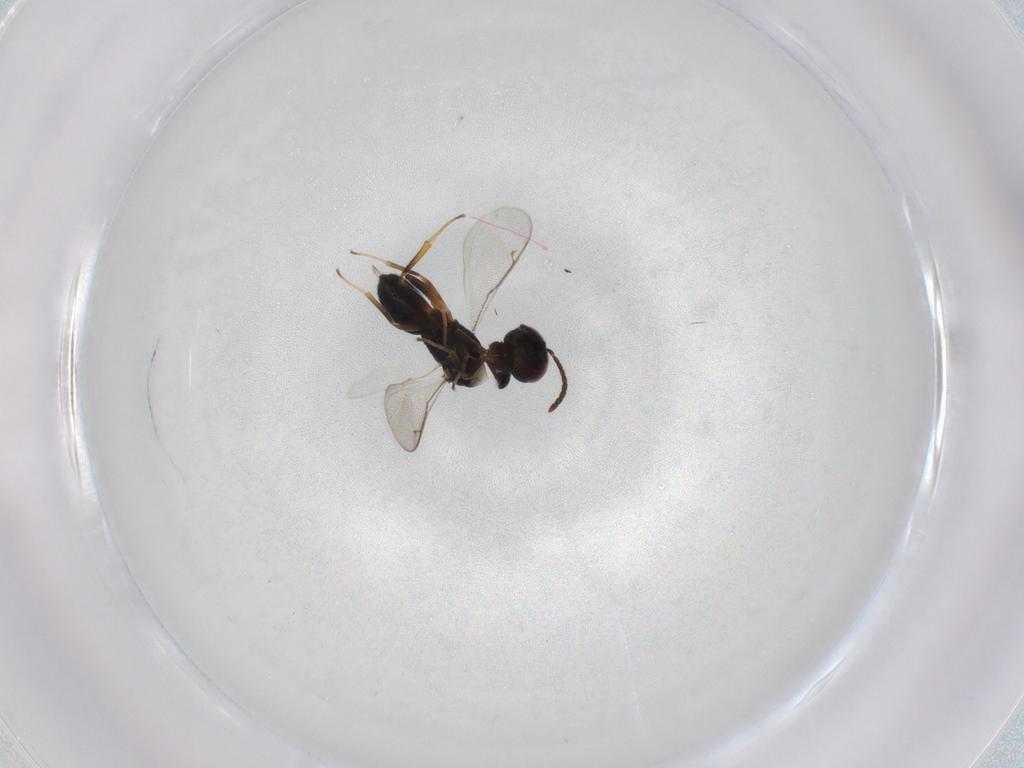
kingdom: Animalia
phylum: Arthropoda
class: Insecta
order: Hymenoptera
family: Pteromalidae
